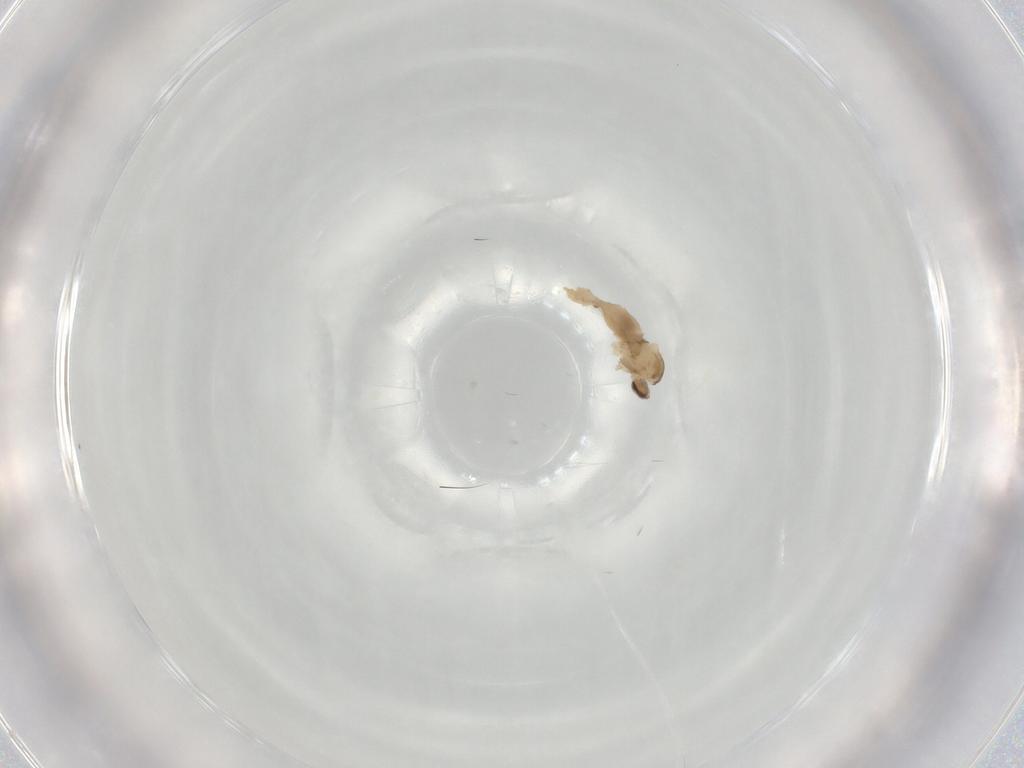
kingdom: Animalia
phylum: Arthropoda
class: Insecta
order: Diptera
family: Cecidomyiidae
